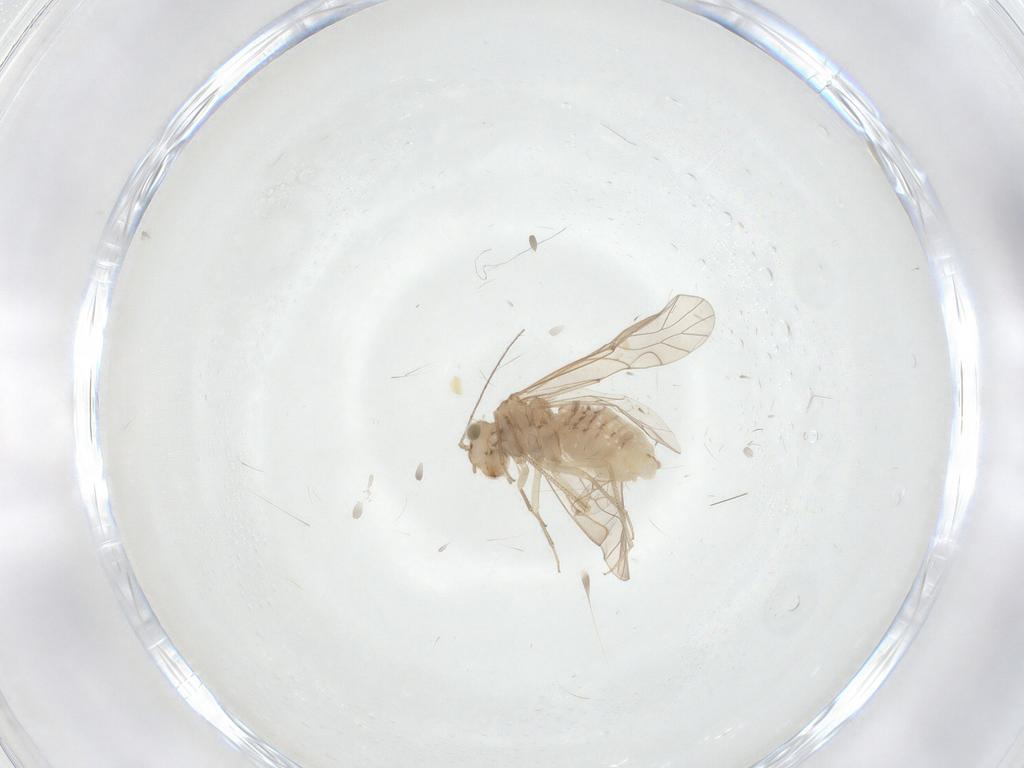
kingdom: Animalia
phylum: Arthropoda
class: Insecta
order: Psocodea
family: Lachesillidae
